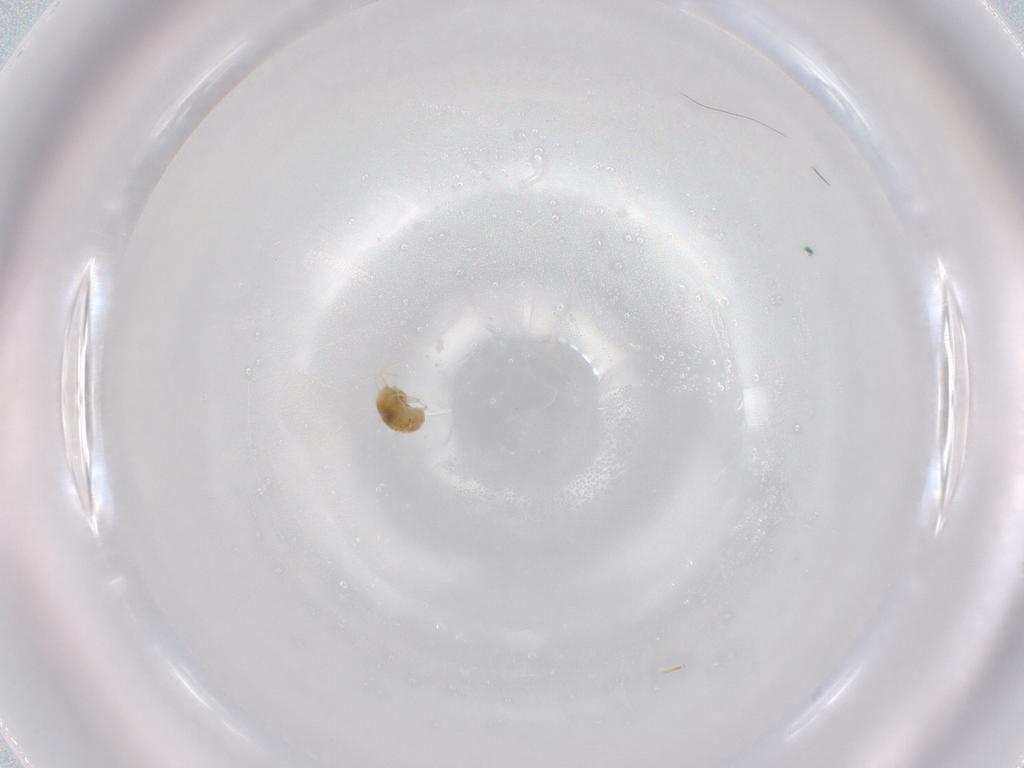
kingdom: Animalia
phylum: Arthropoda
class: Arachnida
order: Trombidiformes
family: Tetranychidae
